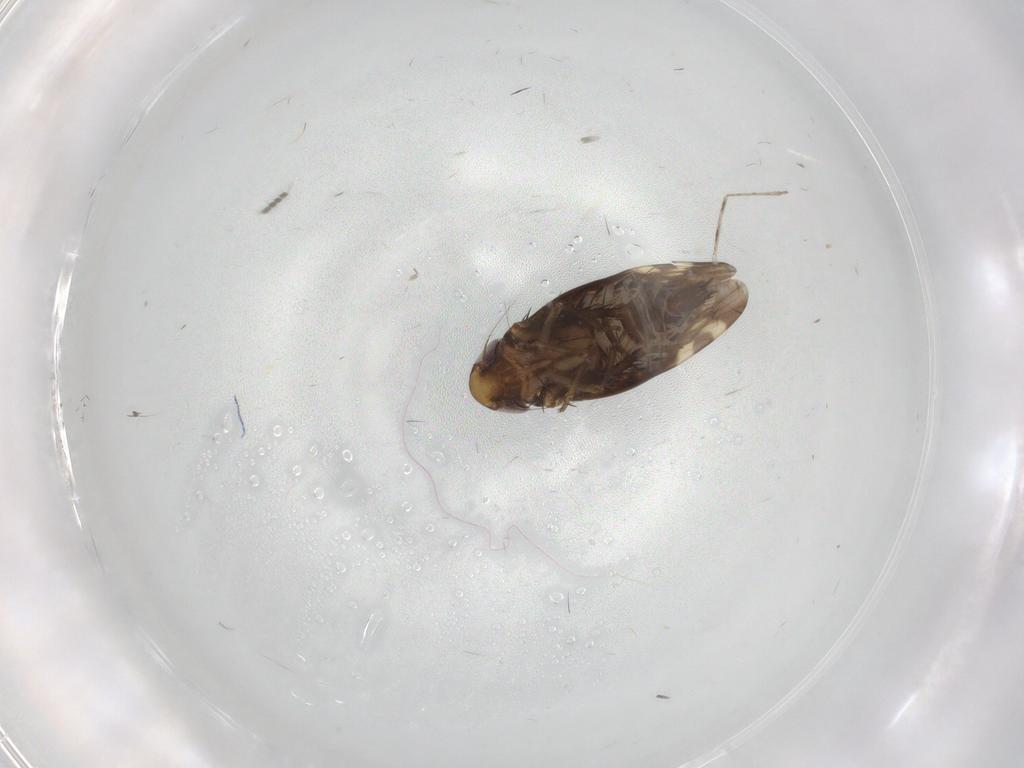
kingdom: Animalia
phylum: Arthropoda
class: Insecta
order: Hemiptera
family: Cicadellidae
